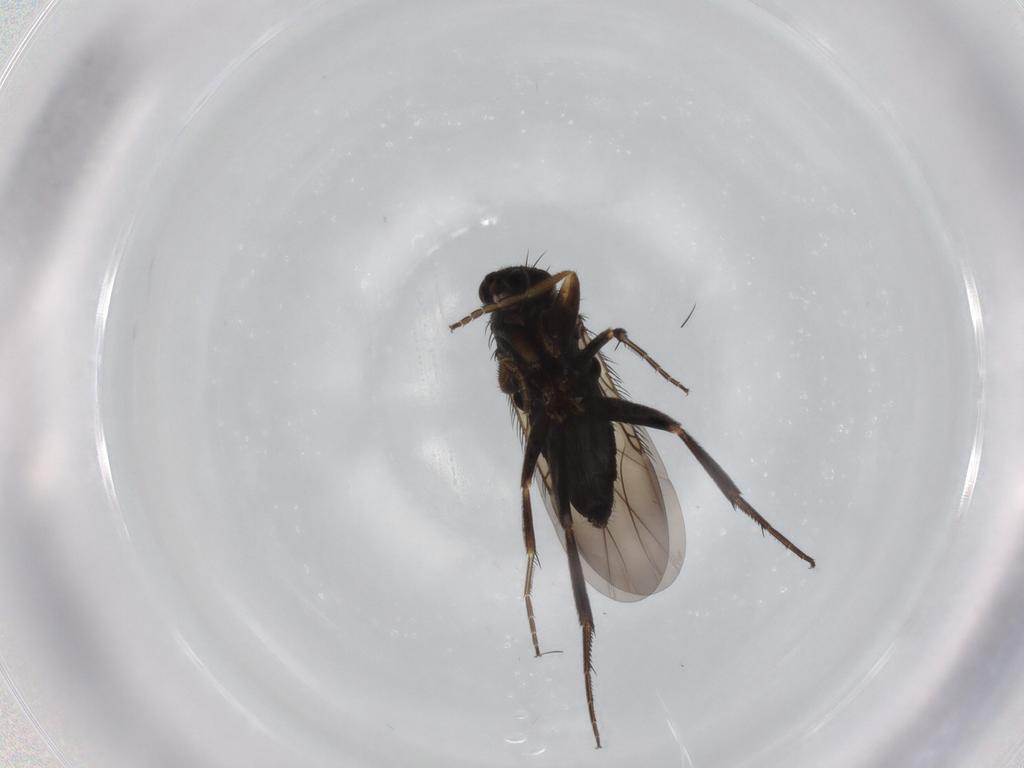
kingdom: Animalia
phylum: Arthropoda
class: Insecta
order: Diptera
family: Phoridae
